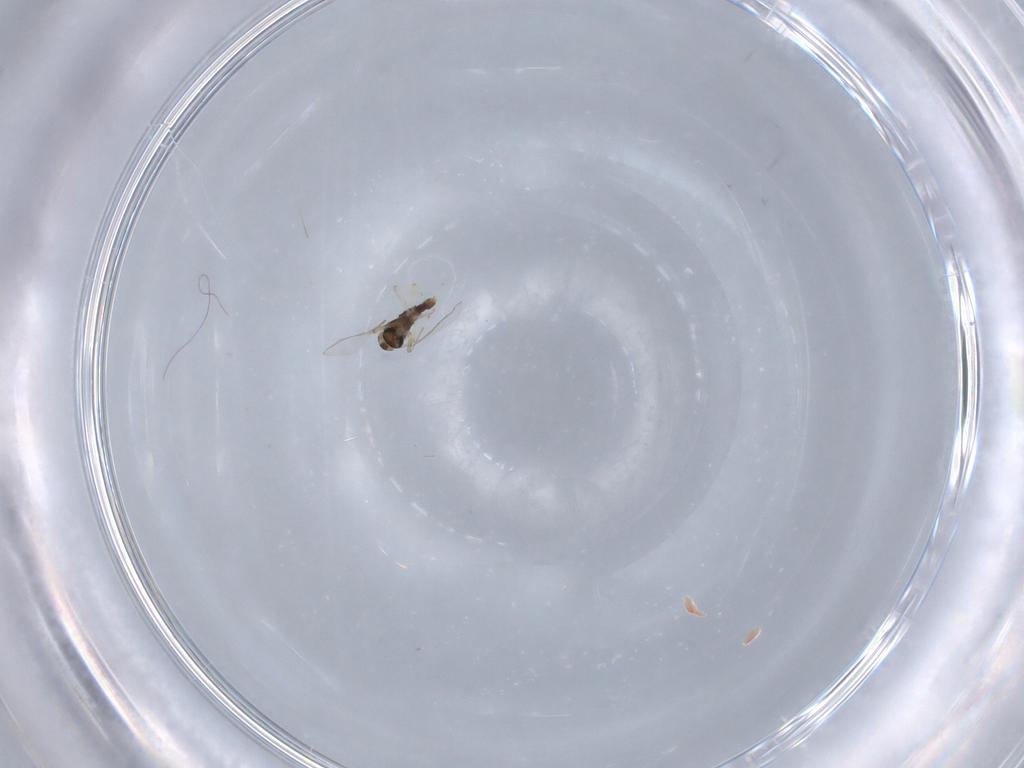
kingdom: Animalia
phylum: Arthropoda
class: Insecta
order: Diptera
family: Chironomidae
